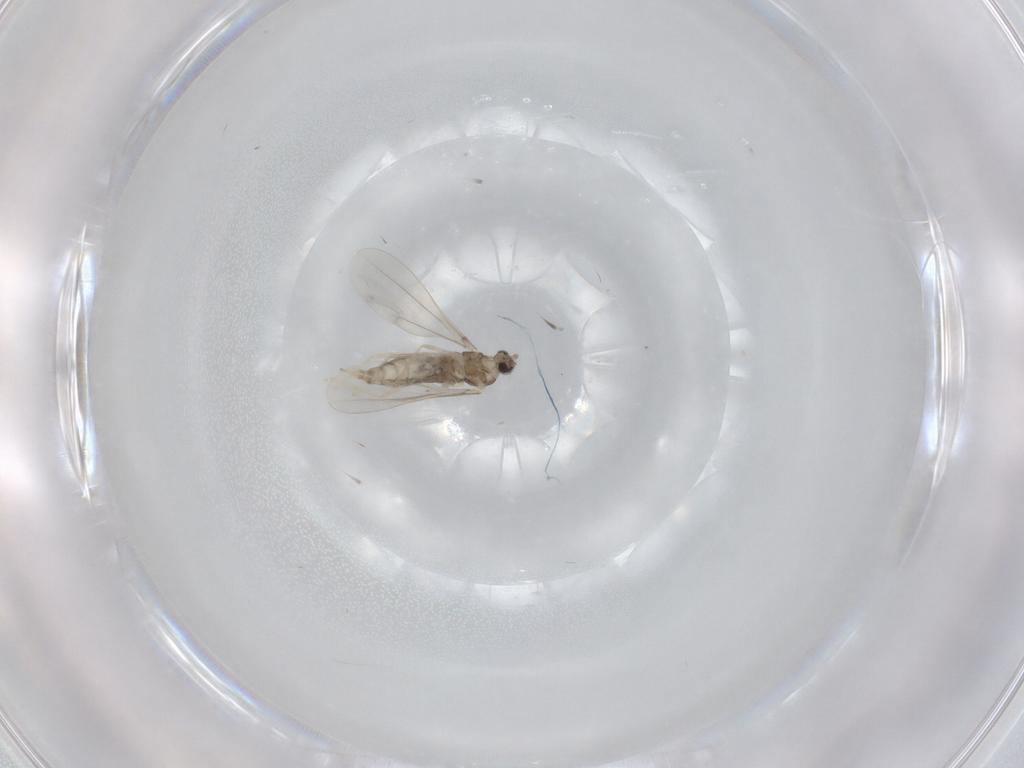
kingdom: Animalia
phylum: Arthropoda
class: Insecta
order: Diptera
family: Cecidomyiidae
